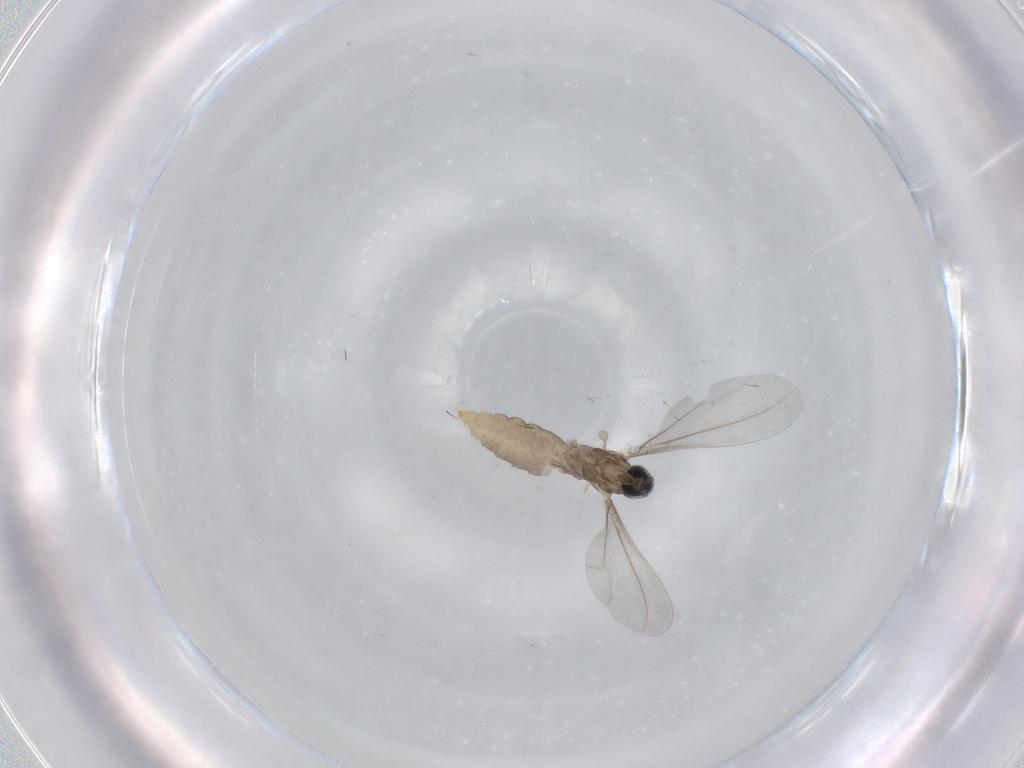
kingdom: Animalia
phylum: Arthropoda
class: Insecta
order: Diptera
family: Cecidomyiidae
